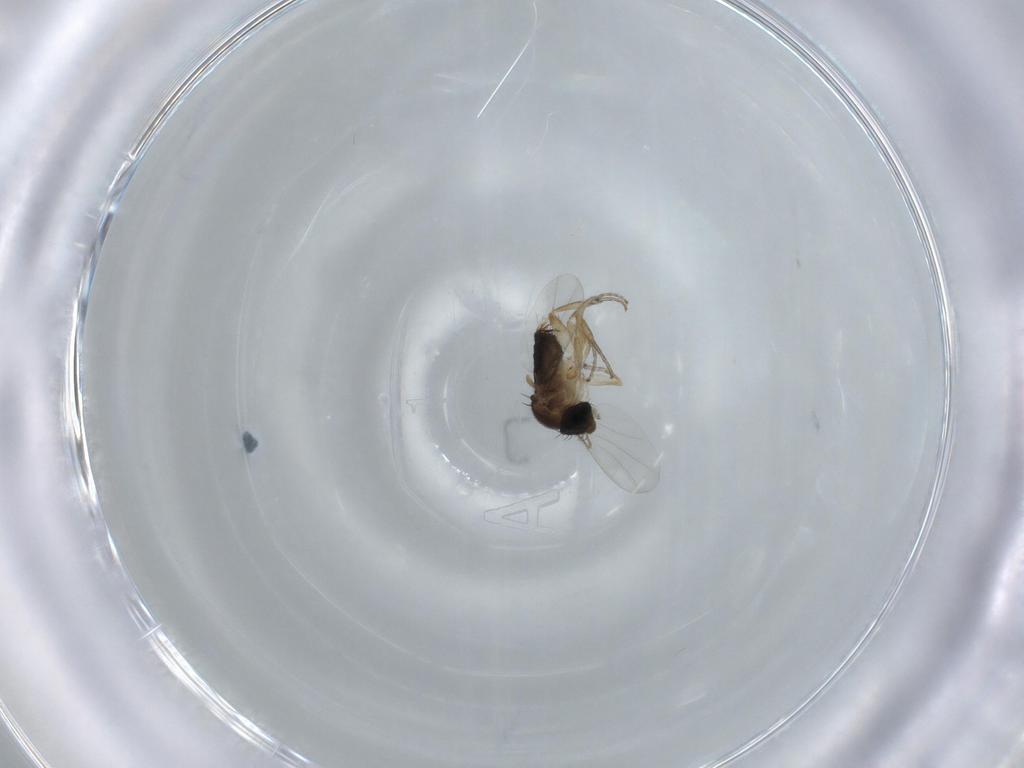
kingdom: Animalia
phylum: Arthropoda
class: Insecta
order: Diptera
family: Phoridae
